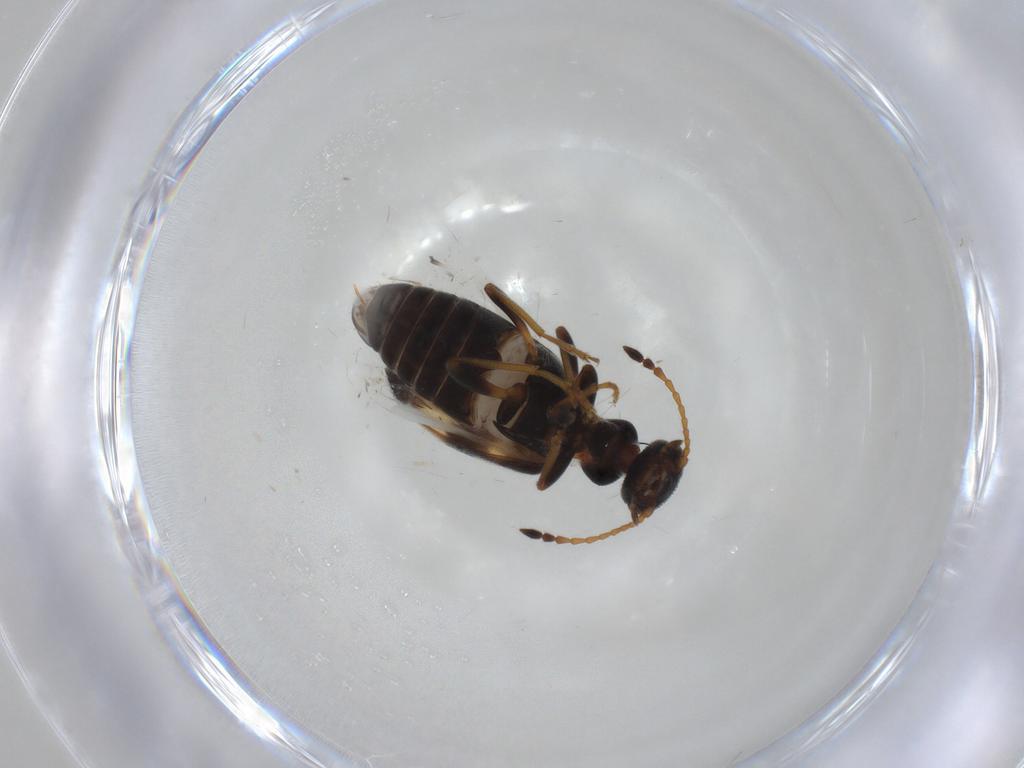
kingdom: Animalia
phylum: Arthropoda
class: Insecta
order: Coleoptera
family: Anthicidae
